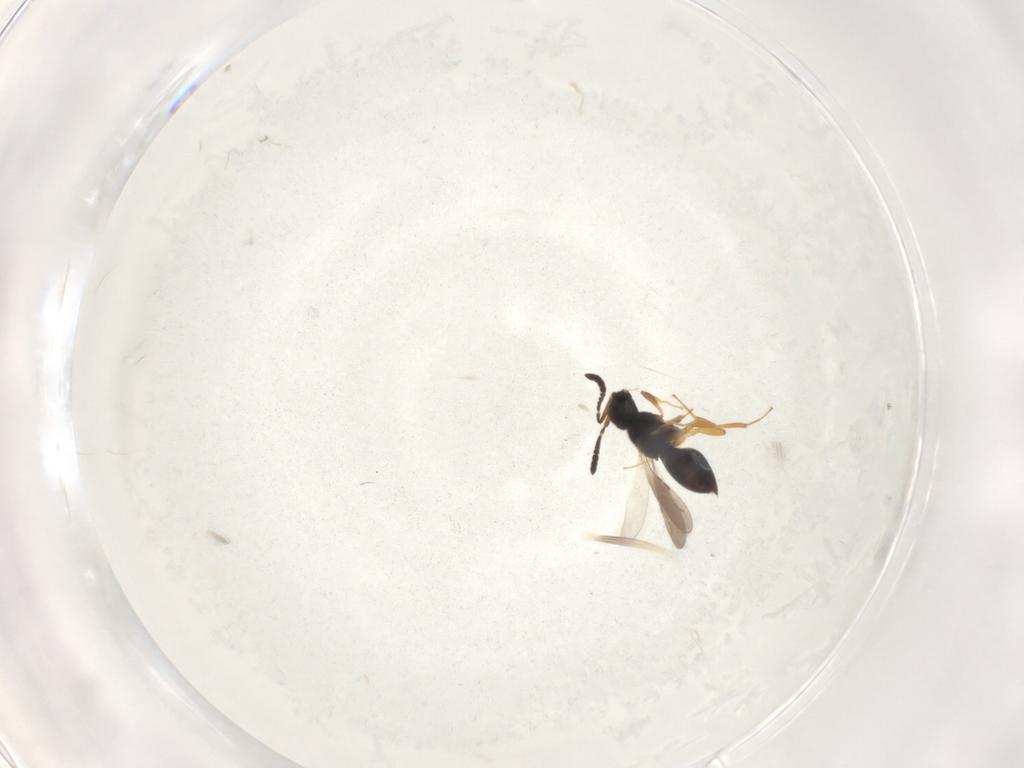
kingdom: Animalia
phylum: Arthropoda
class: Insecta
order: Hymenoptera
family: Ceraphronidae
